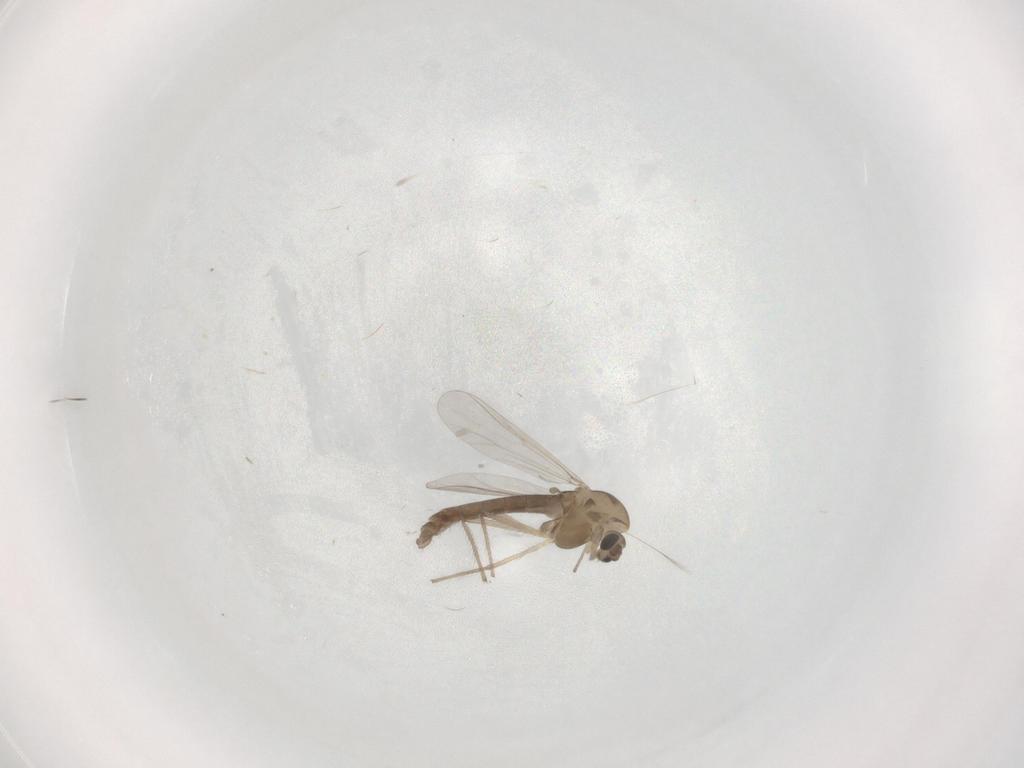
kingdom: Animalia
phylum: Arthropoda
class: Insecta
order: Diptera
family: Chironomidae
